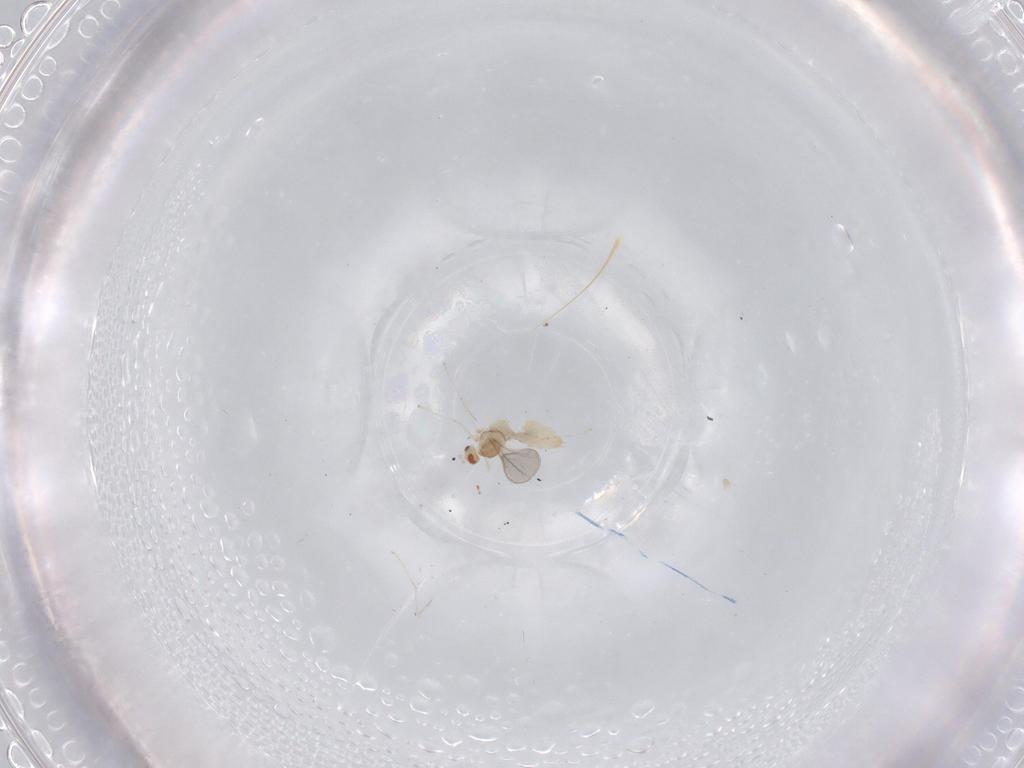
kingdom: Animalia
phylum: Arthropoda
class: Insecta
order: Diptera
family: Cecidomyiidae
